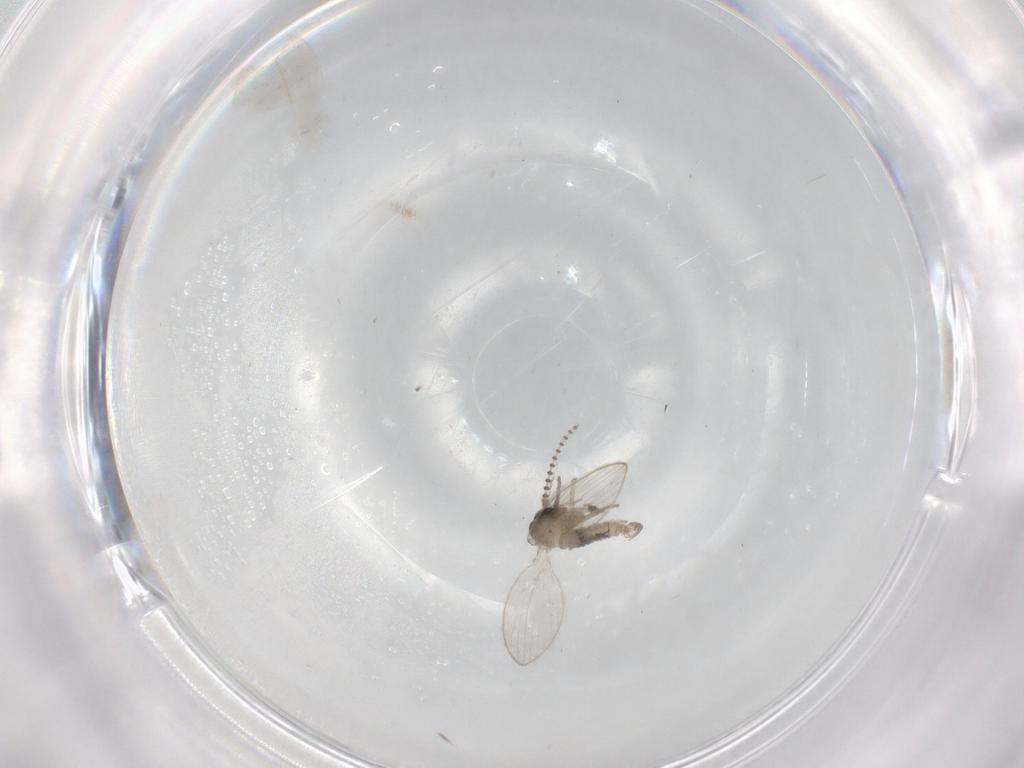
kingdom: Animalia
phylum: Arthropoda
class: Insecta
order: Diptera
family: Psychodidae
